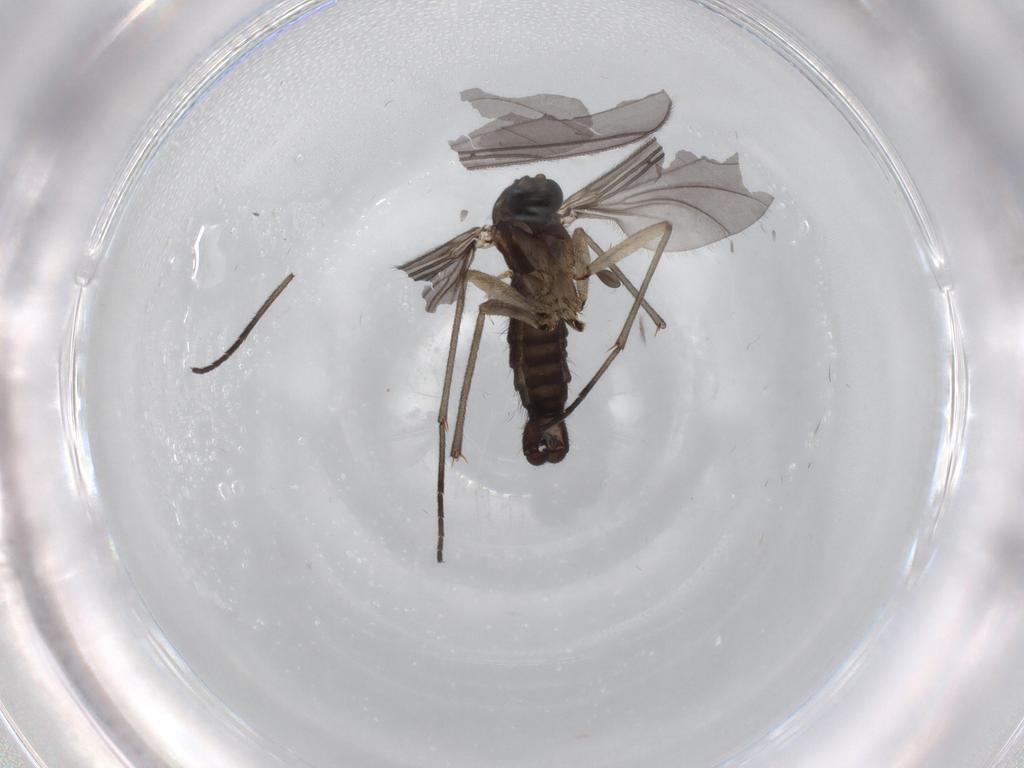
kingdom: Animalia
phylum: Arthropoda
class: Insecta
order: Diptera
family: Sciaridae
